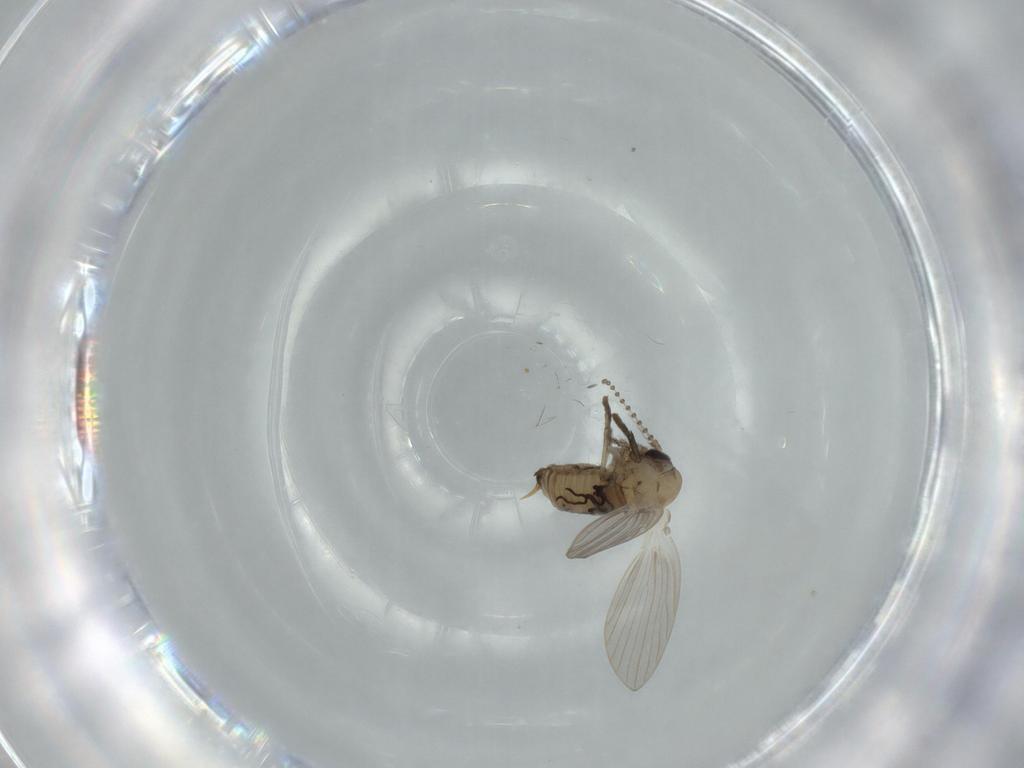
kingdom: Animalia
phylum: Arthropoda
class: Insecta
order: Diptera
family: Psychodidae
